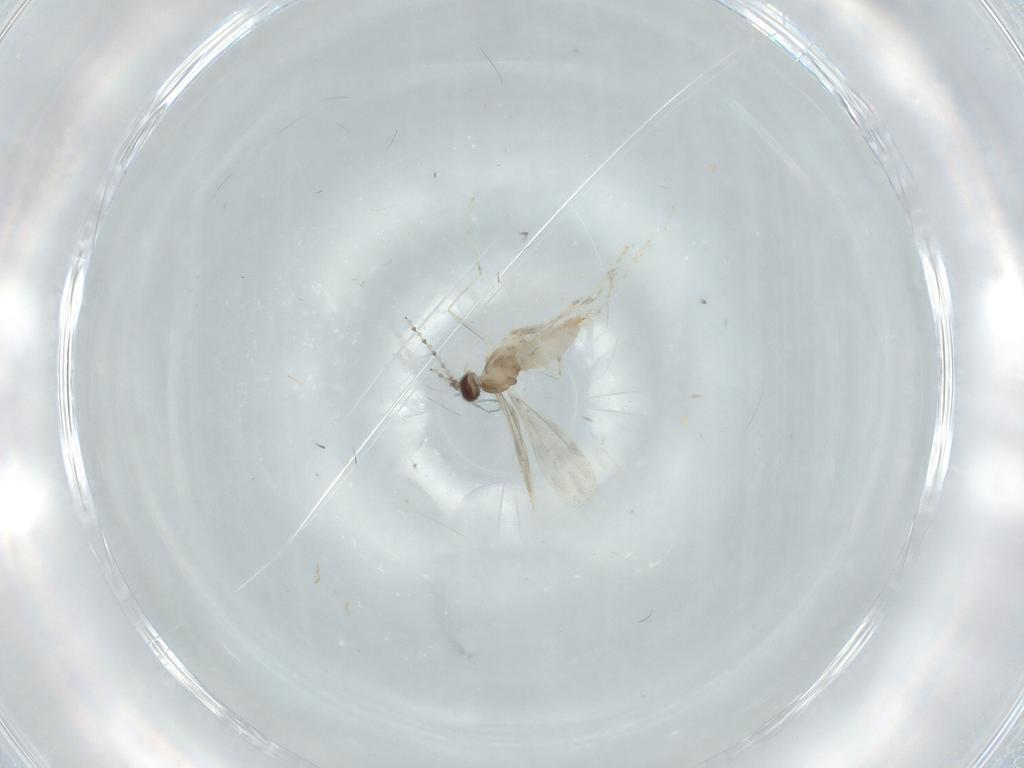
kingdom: Animalia
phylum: Arthropoda
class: Insecta
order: Diptera
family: Cecidomyiidae
